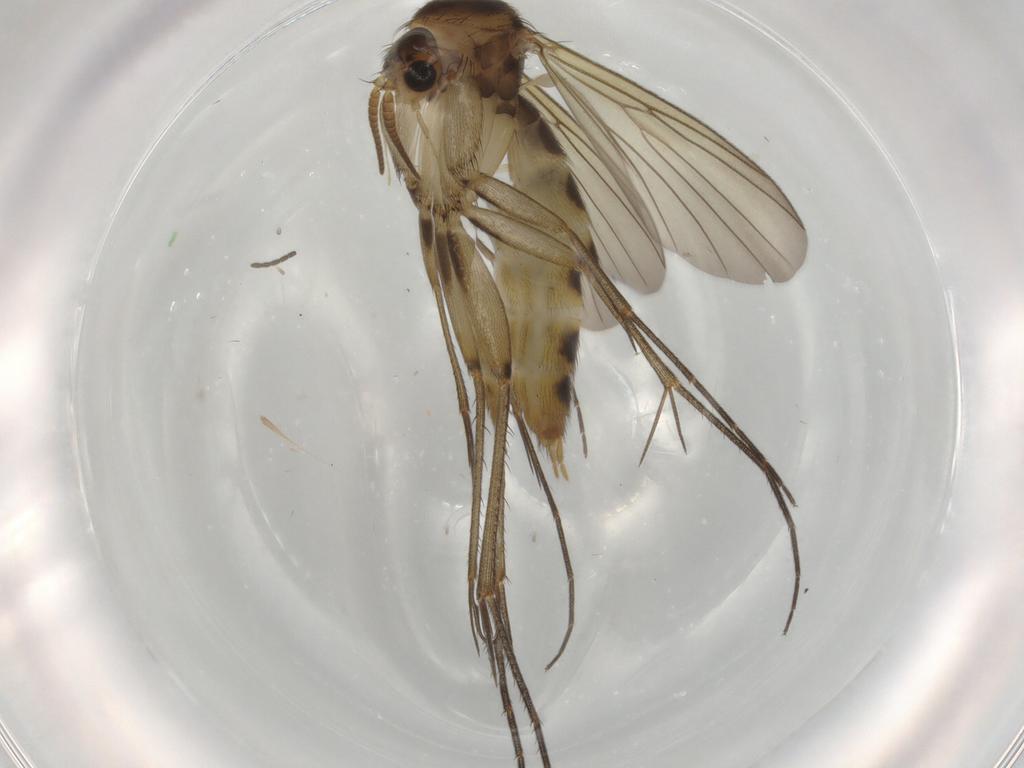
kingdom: Animalia
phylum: Arthropoda
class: Insecta
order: Diptera
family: Mycetophilidae
